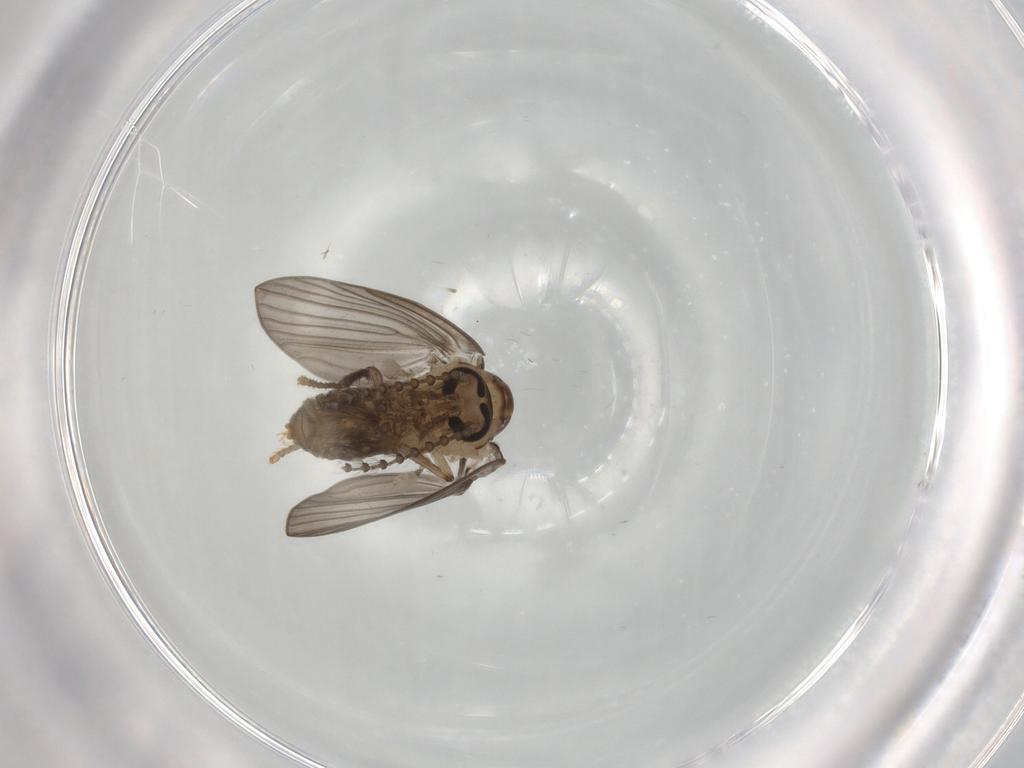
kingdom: Animalia
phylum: Arthropoda
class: Insecta
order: Diptera
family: Psychodidae
